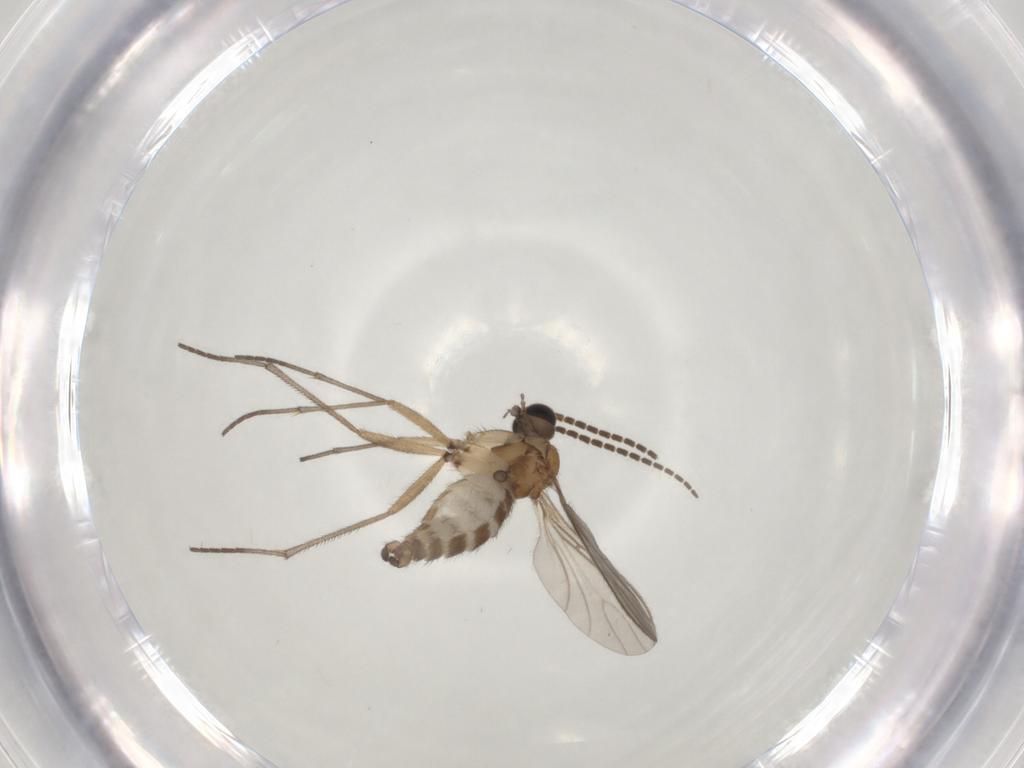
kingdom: Animalia
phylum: Arthropoda
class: Insecta
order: Diptera
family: Sciaridae
